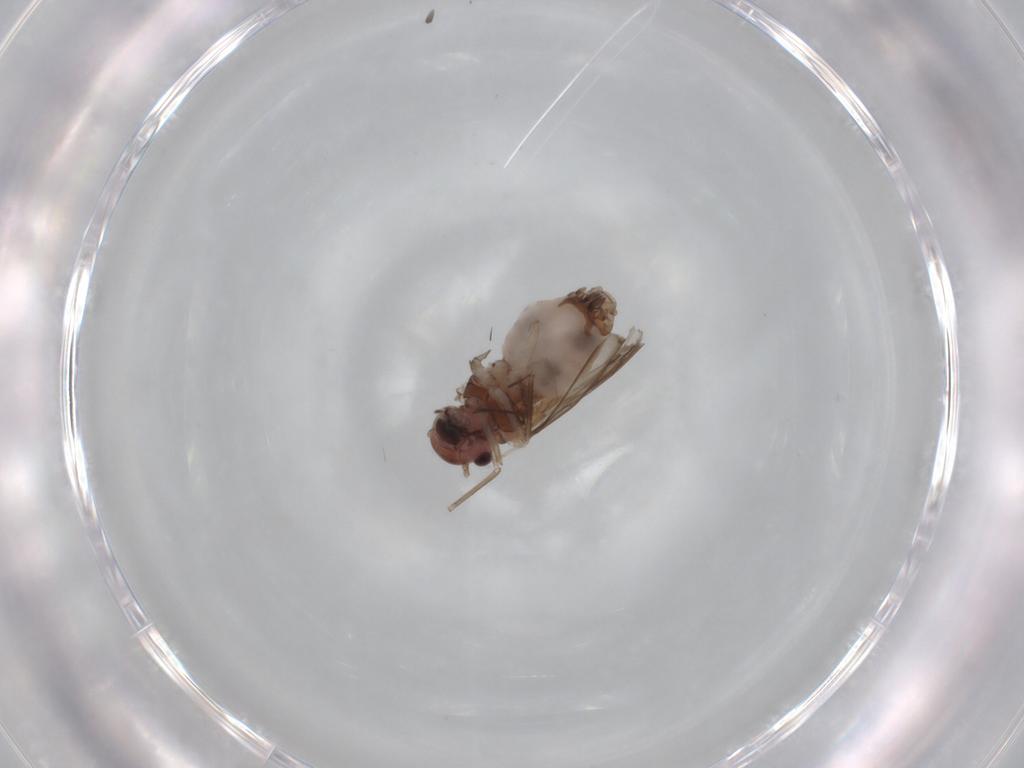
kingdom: Animalia
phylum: Arthropoda
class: Insecta
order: Psocodea
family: Peripsocidae
